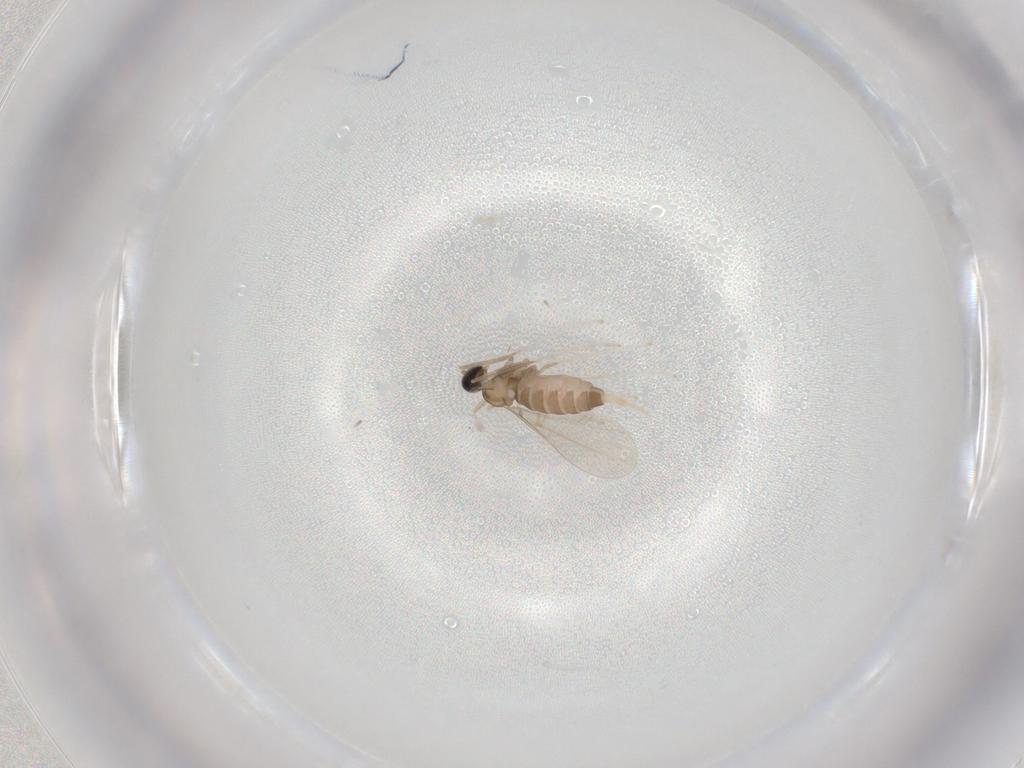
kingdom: Animalia
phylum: Arthropoda
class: Insecta
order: Diptera
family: Cecidomyiidae
